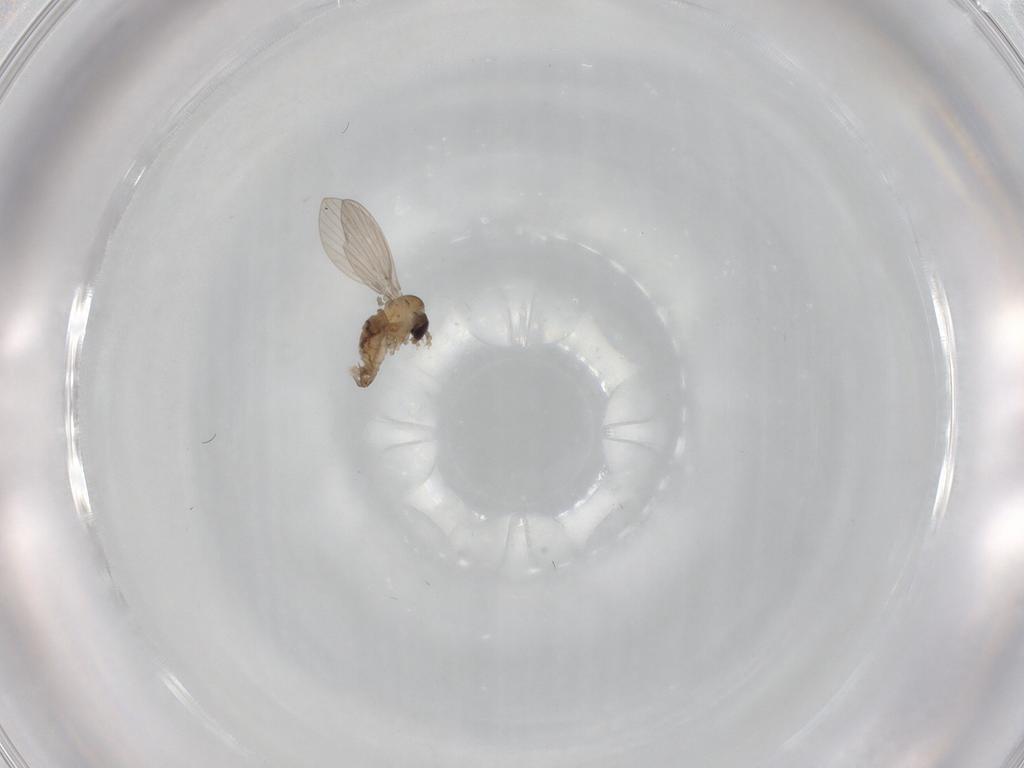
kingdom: Animalia
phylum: Arthropoda
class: Insecta
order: Diptera
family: Psychodidae
